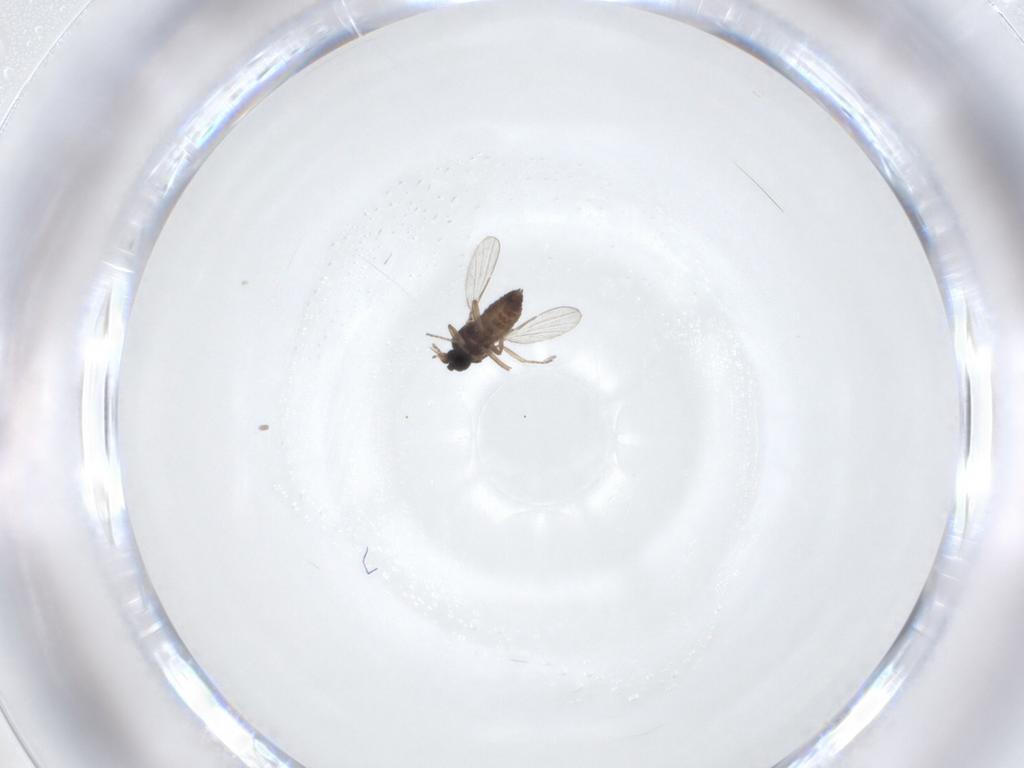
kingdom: Animalia
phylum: Arthropoda
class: Insecta
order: Diptera
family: Ceratopogonidae
